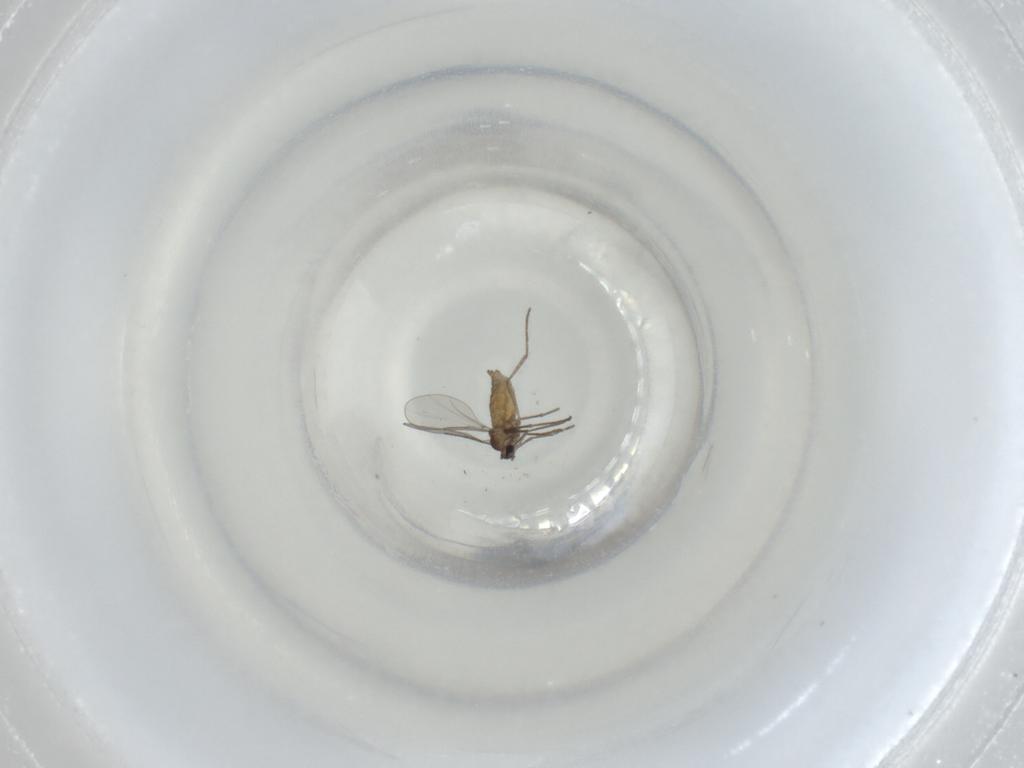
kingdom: Animalia
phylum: Arthropoda
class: Insecta
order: Diptera
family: Cecidomyiidae
